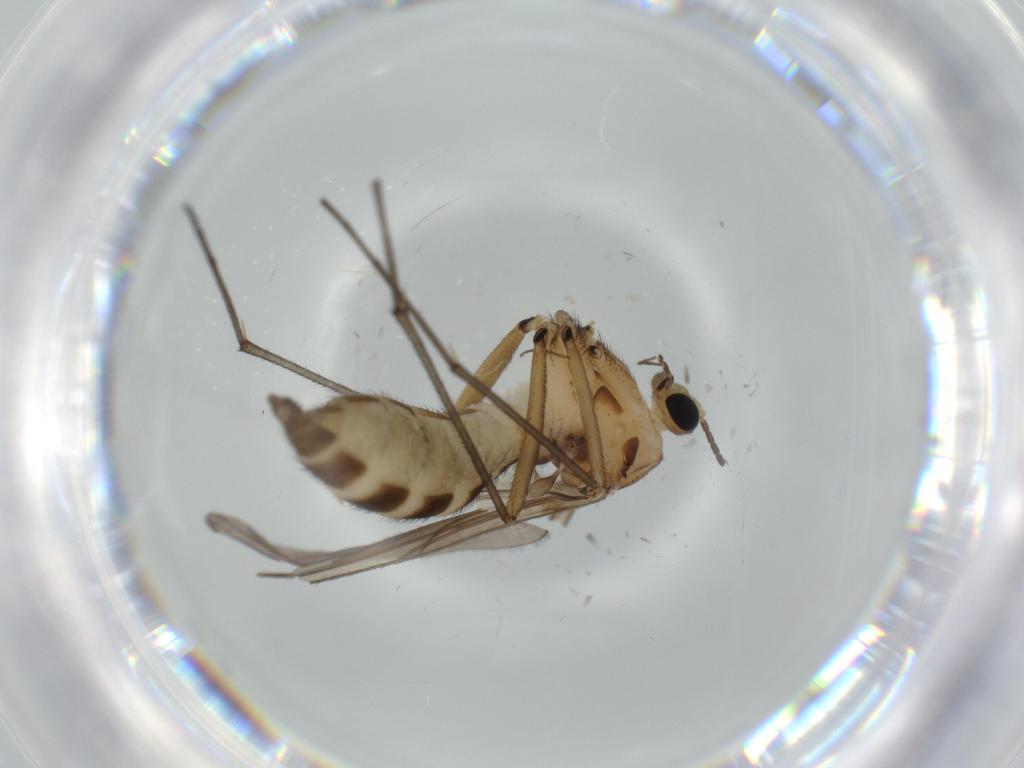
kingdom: Animalia
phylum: Arthropoda
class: Insecta
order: Diptera
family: Sciaridae
